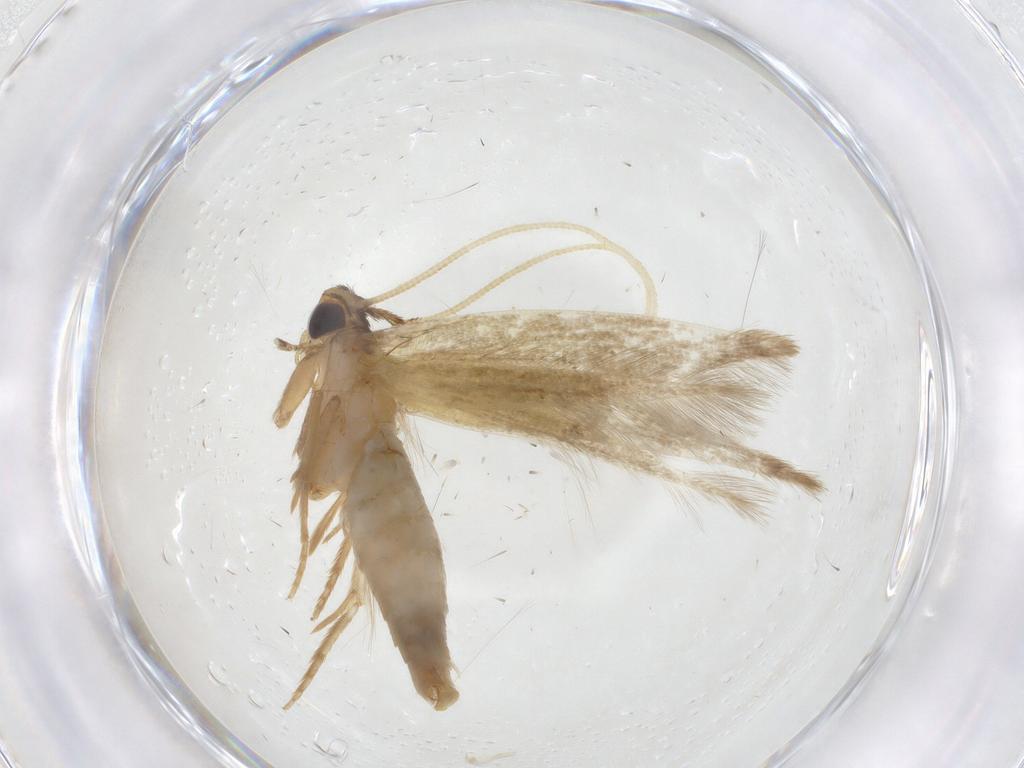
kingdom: Animalia
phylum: Arthropoda
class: Insecta
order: Lepidoptera
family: Tineidae
